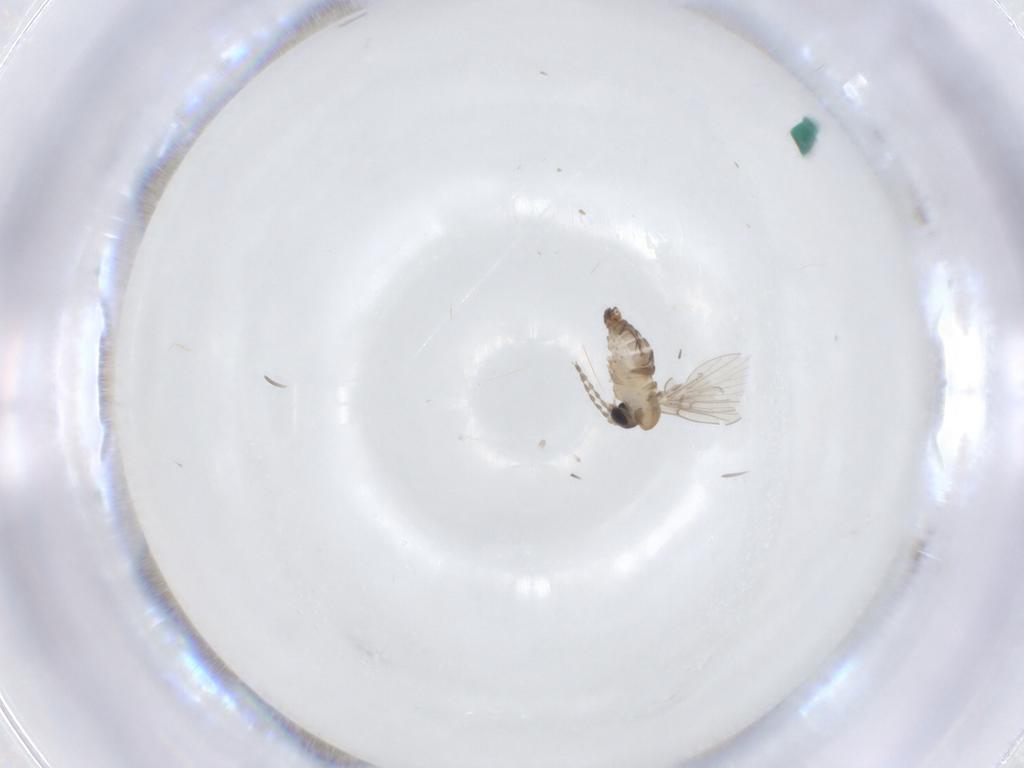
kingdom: Animalia
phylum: Arthropoda
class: Insecta
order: Diptera
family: Psychodidae
